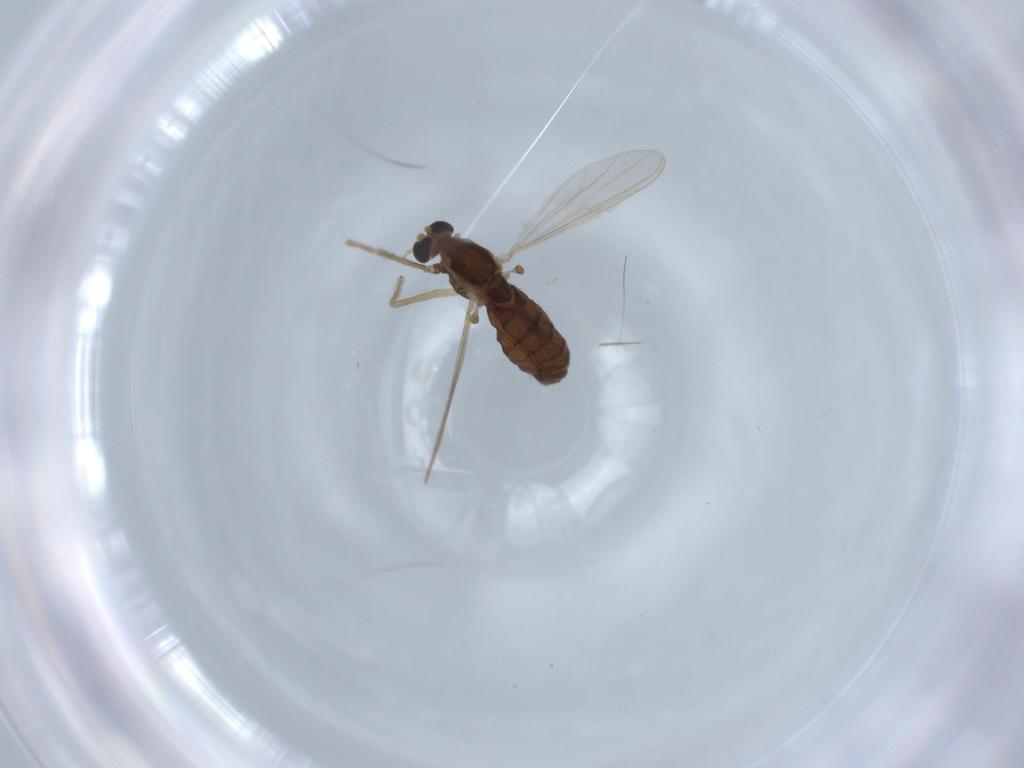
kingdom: Animalia
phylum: Arthropoda
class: Insecta
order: Diptera
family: Chironomidae
